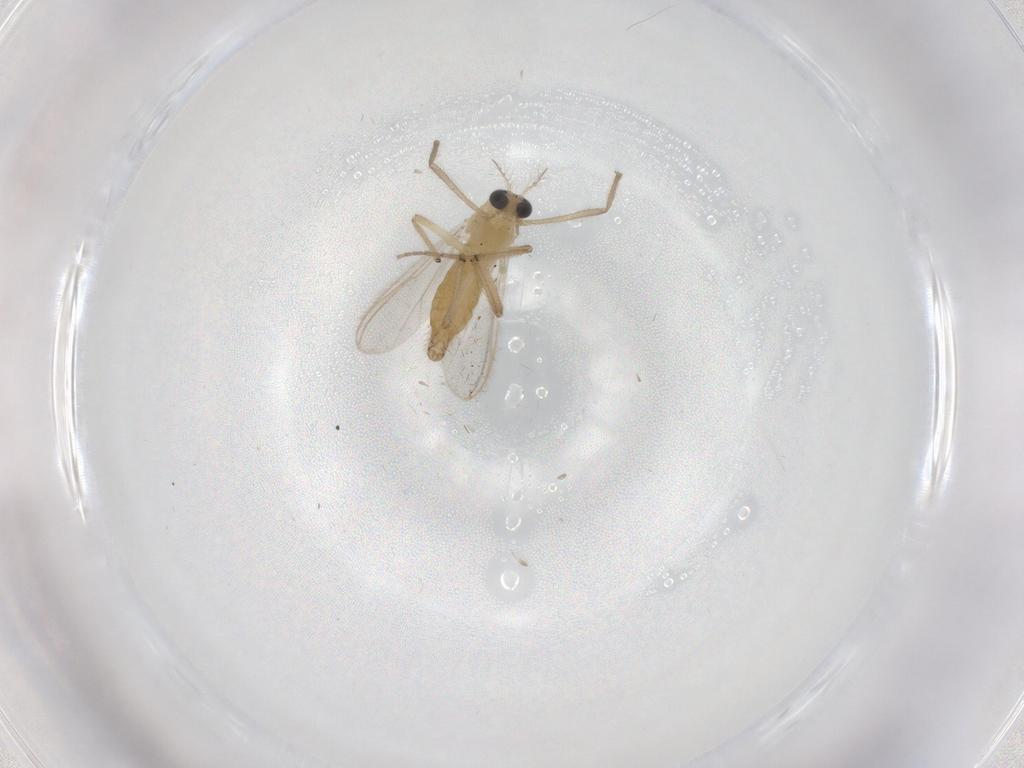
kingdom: Animalia
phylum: Arthropoda
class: Insecta
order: Diptera
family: Chironomidae
